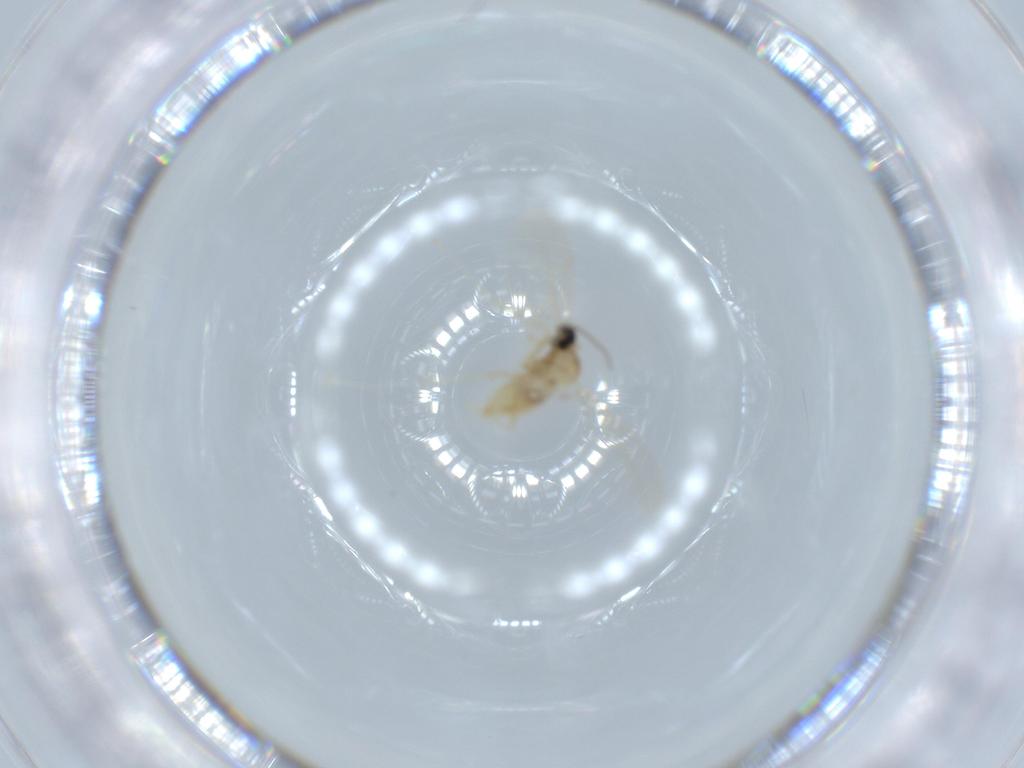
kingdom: Animalia
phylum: Arthropoda
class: Insecta
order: Diptera
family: Cecidomyiidae
